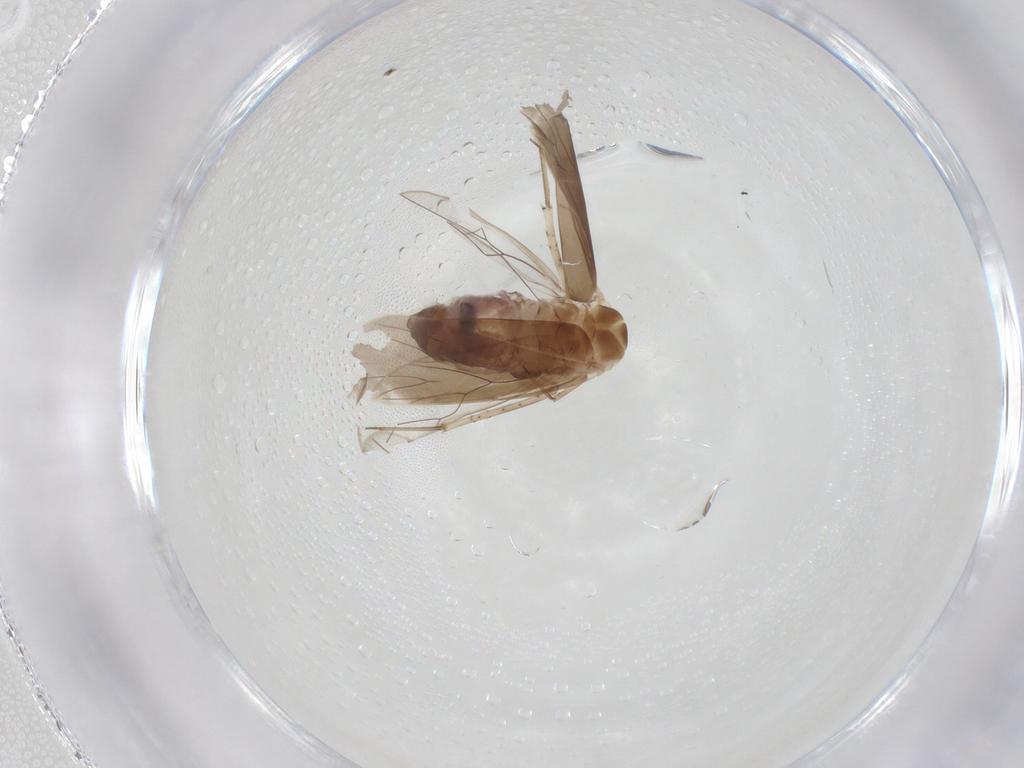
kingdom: Animalia
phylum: Arthropoda
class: Insecta
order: Psocodea
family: Amphientomidae
